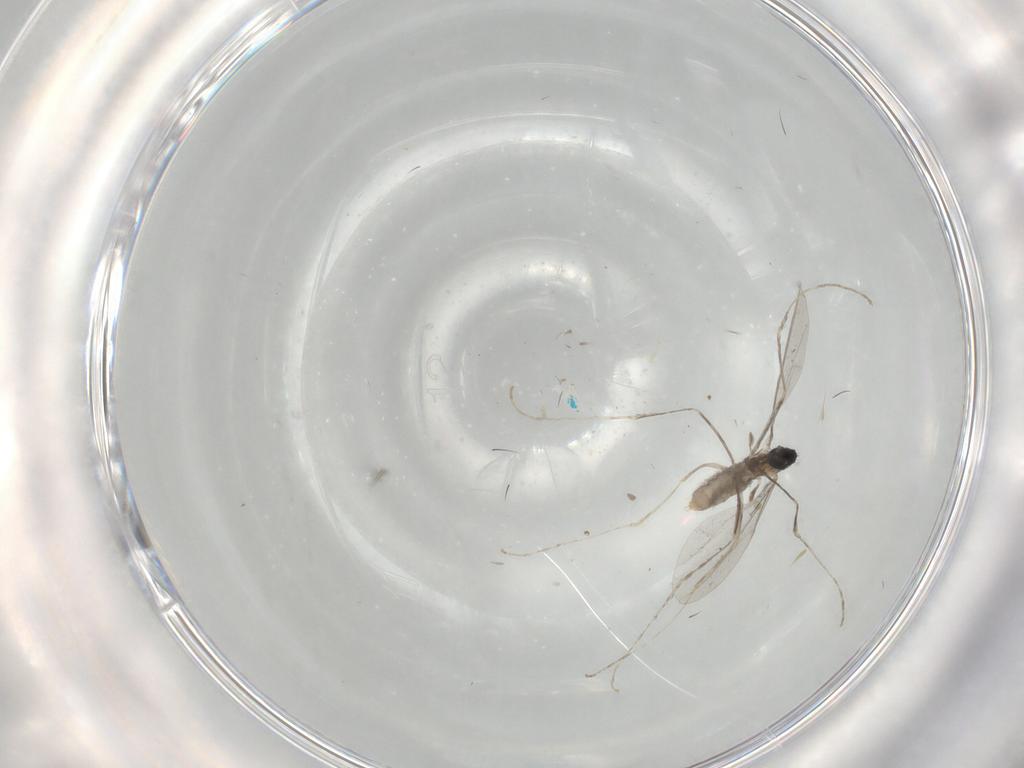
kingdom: Animalia
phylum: Arthropoda
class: Insecta
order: Diptera
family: Cecidomyiidae
